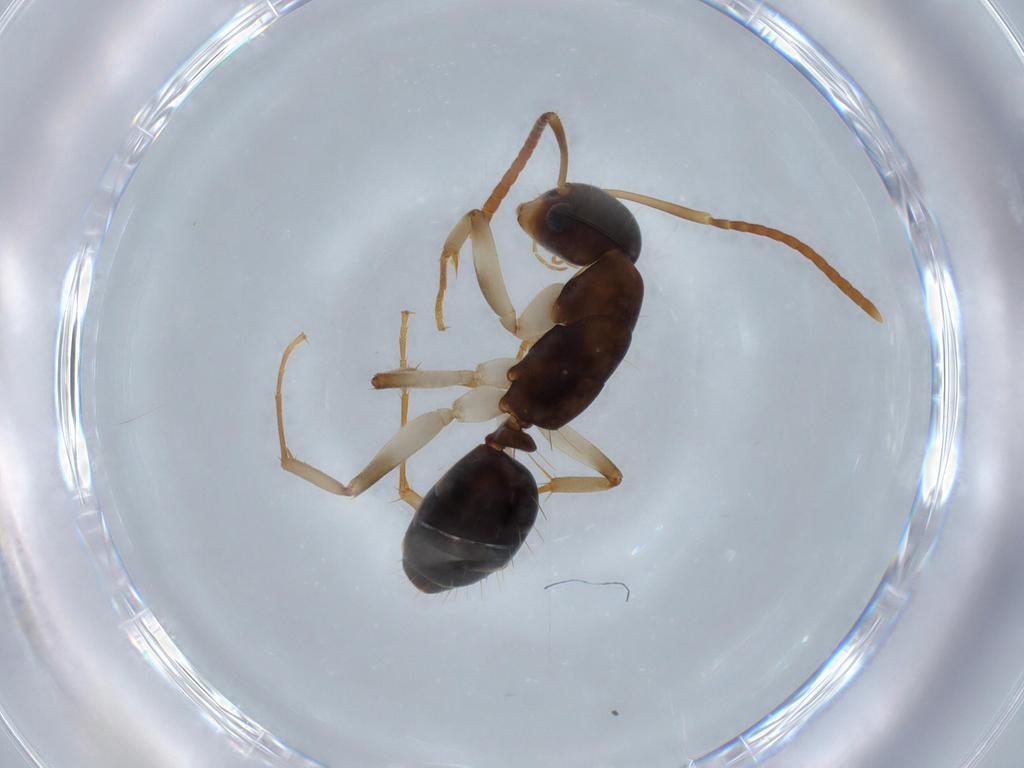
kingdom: Animalia
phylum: Arthropoda
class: Insecta
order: Hymenoptera
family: Formicidae
